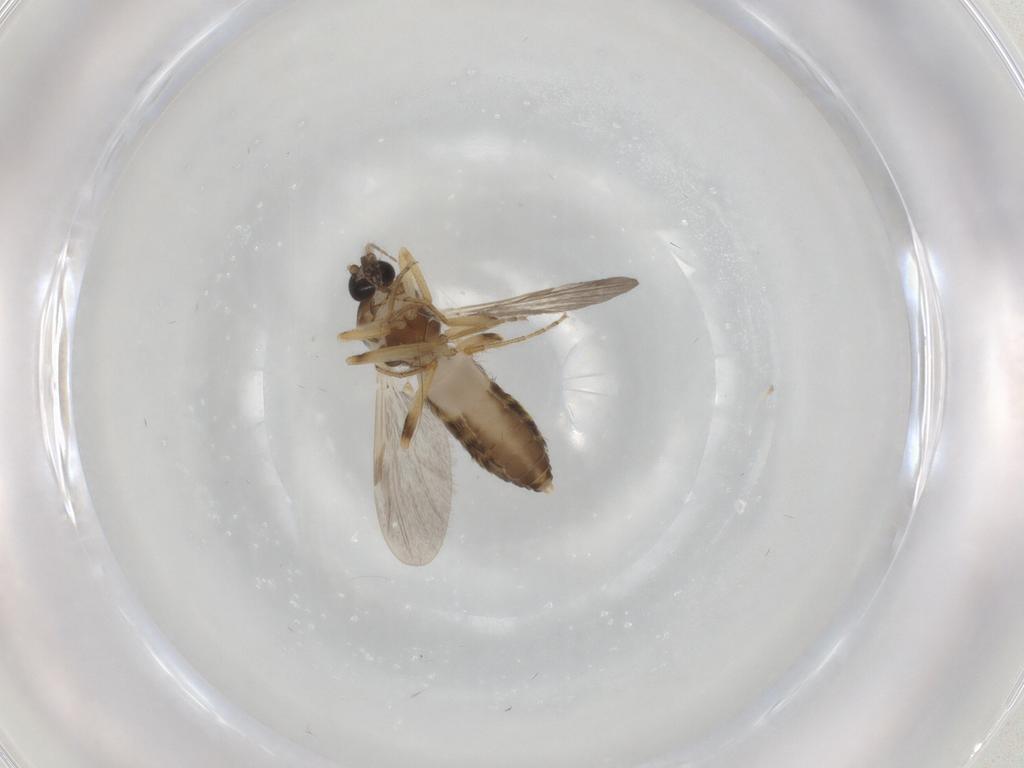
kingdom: Animalia
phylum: Arthropoda
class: Insecta
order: Diptera
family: Ceratopogonidae
